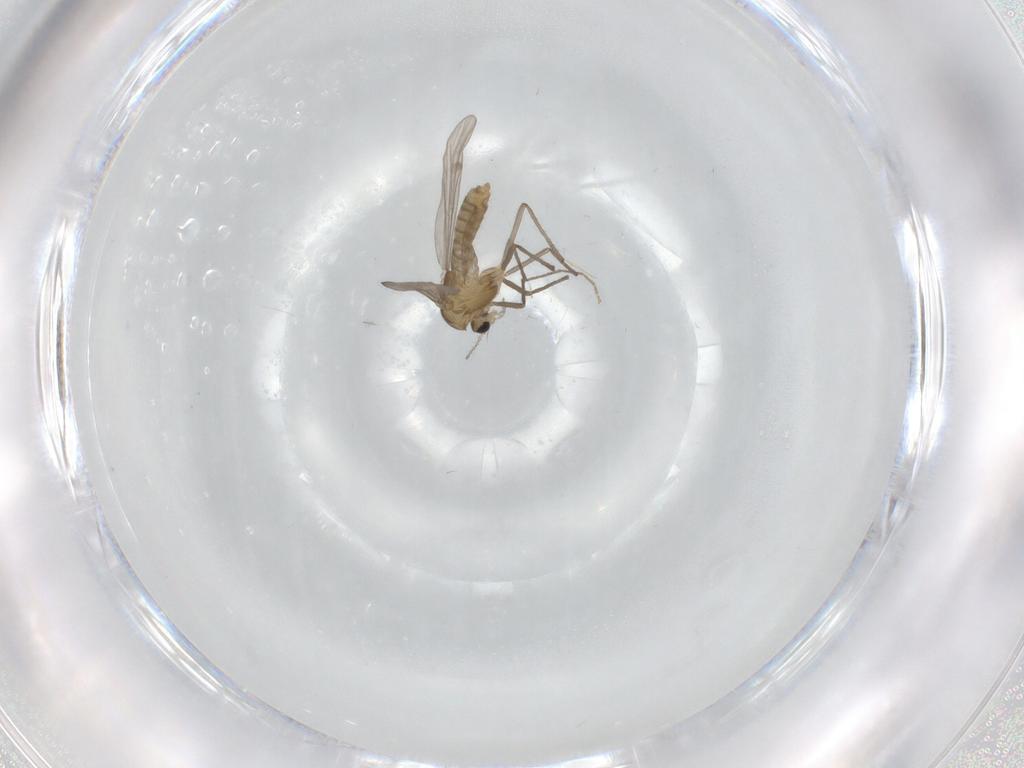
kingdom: Animalia
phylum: Arthropoda
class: Insecta
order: Diptera
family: Chironomidae
